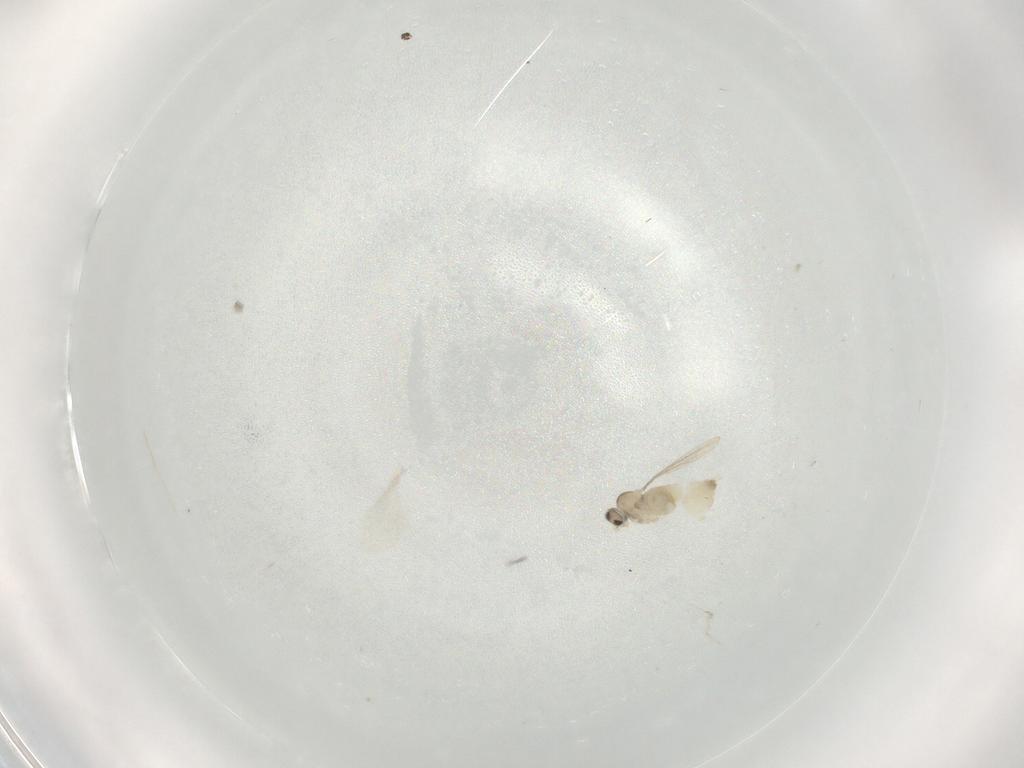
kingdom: Animalia
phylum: Arthropoda
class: Insecta
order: Diptera
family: Cecidomyiidae
